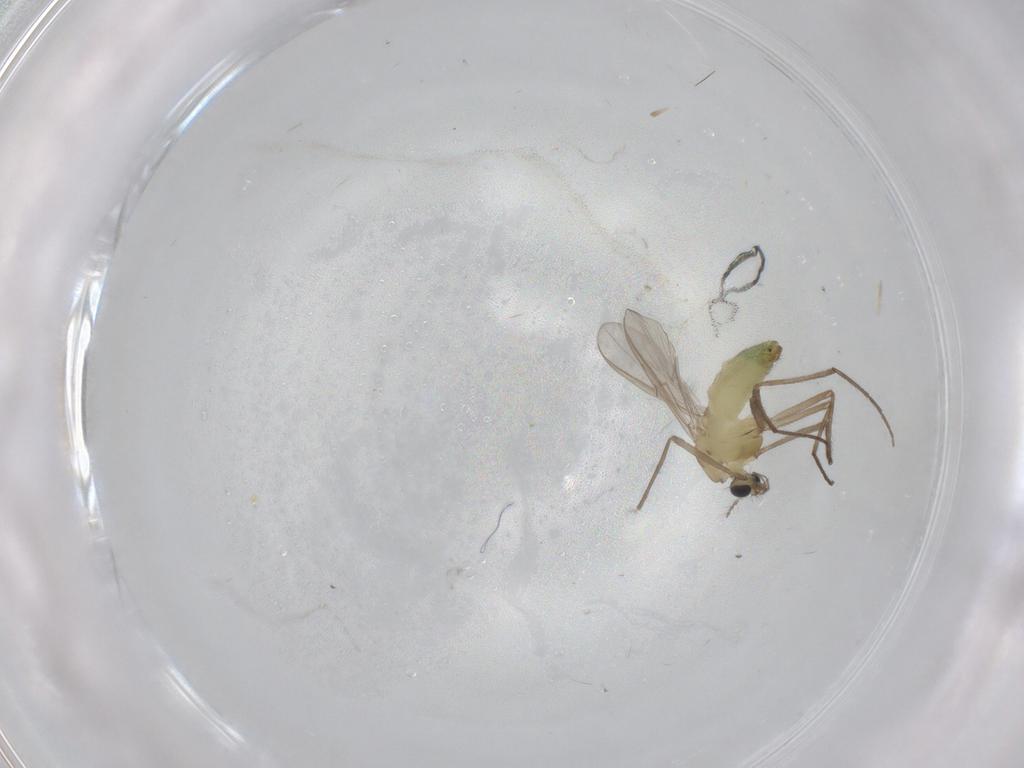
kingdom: Animalia
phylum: Arthropoda
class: Insecta
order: Diptera
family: Chironomidae
